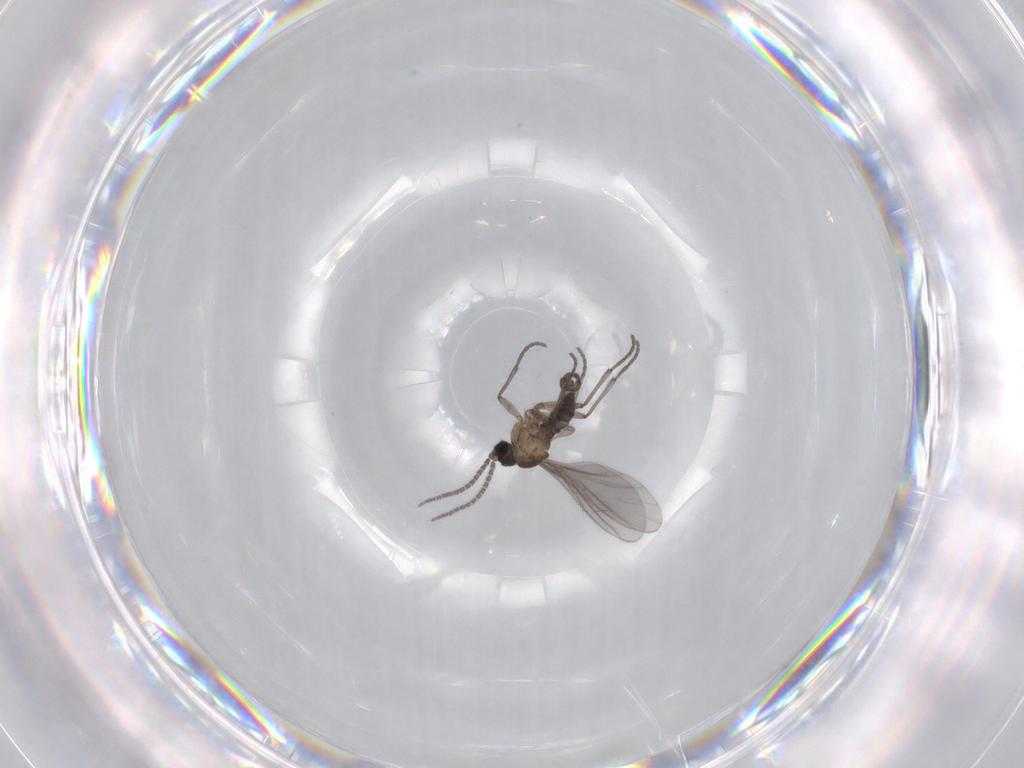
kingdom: Animalia
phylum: Arthropoda
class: Insecta
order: Diptera
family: Sciaridae
